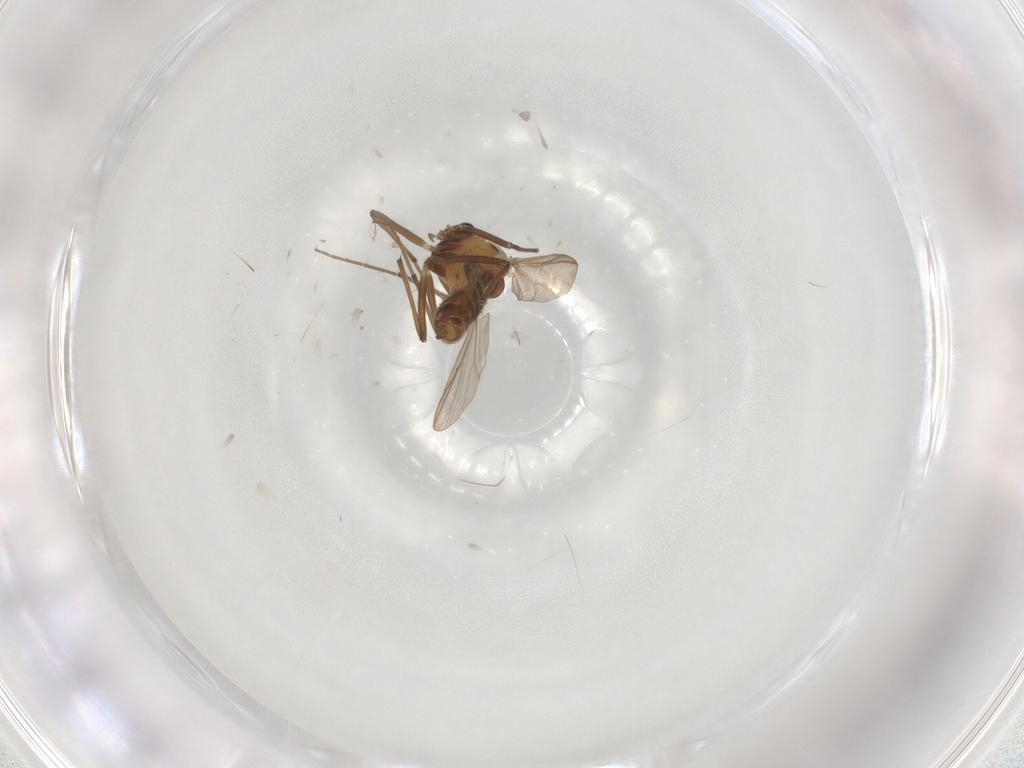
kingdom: Animalia
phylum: Arthropoda
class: Insecta
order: Diptera
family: Chironomidae
